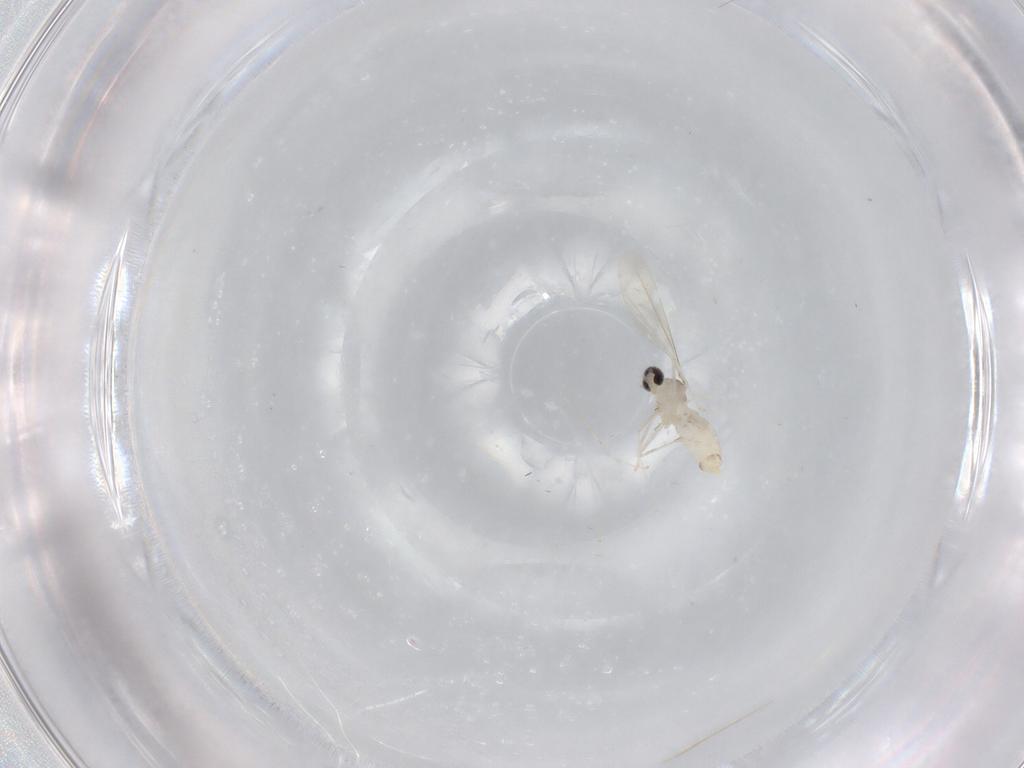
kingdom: Animalia
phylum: Arthropoda
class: Insecta
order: Diptera
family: Cecidomyiidae
